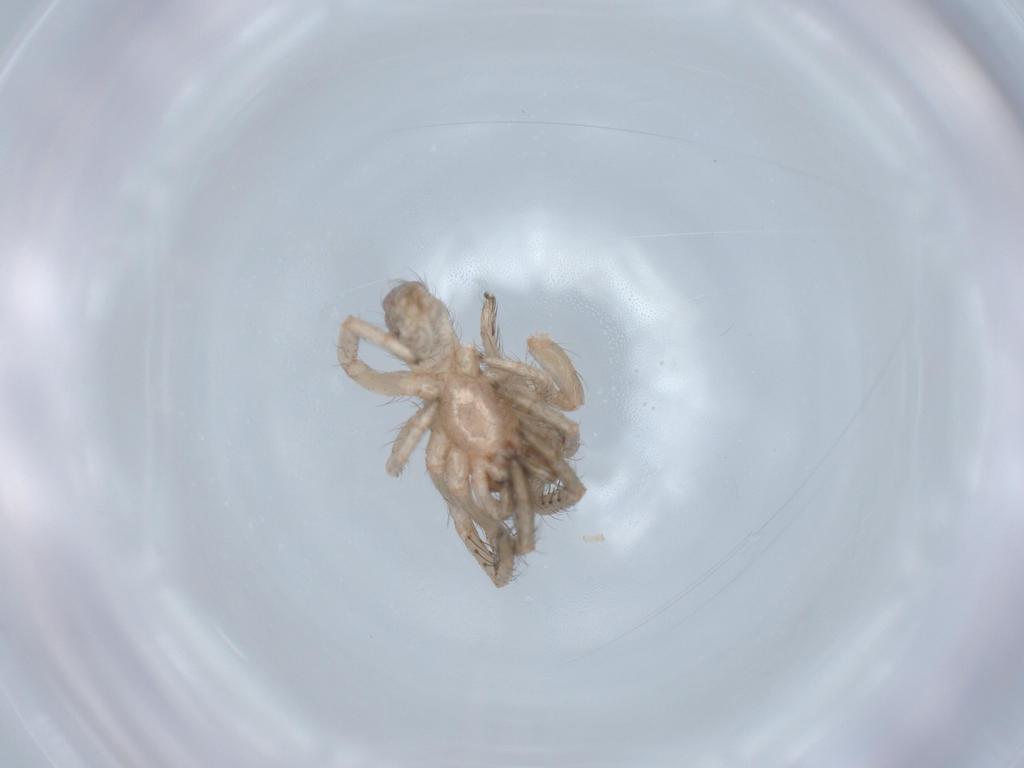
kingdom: Animalia
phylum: Arthropoda
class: Arachnida
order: Araneae
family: Segestriidae
